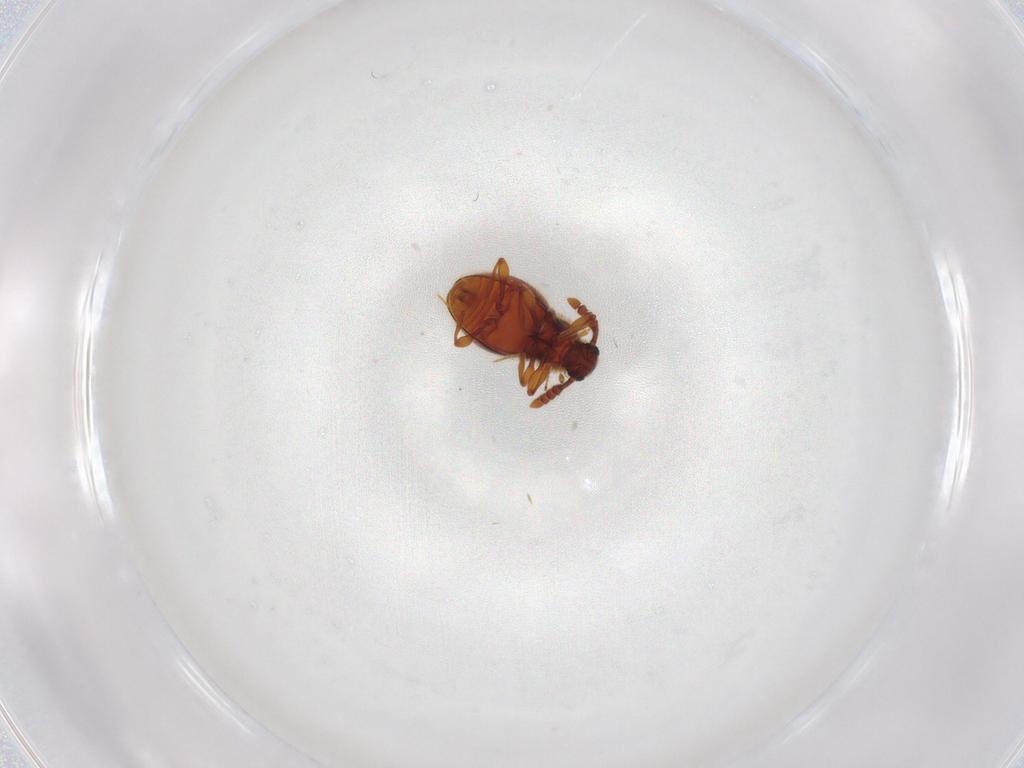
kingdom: Animalia
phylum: Arthropoda
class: Insecta
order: Coleoptera
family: Staphylinidae
